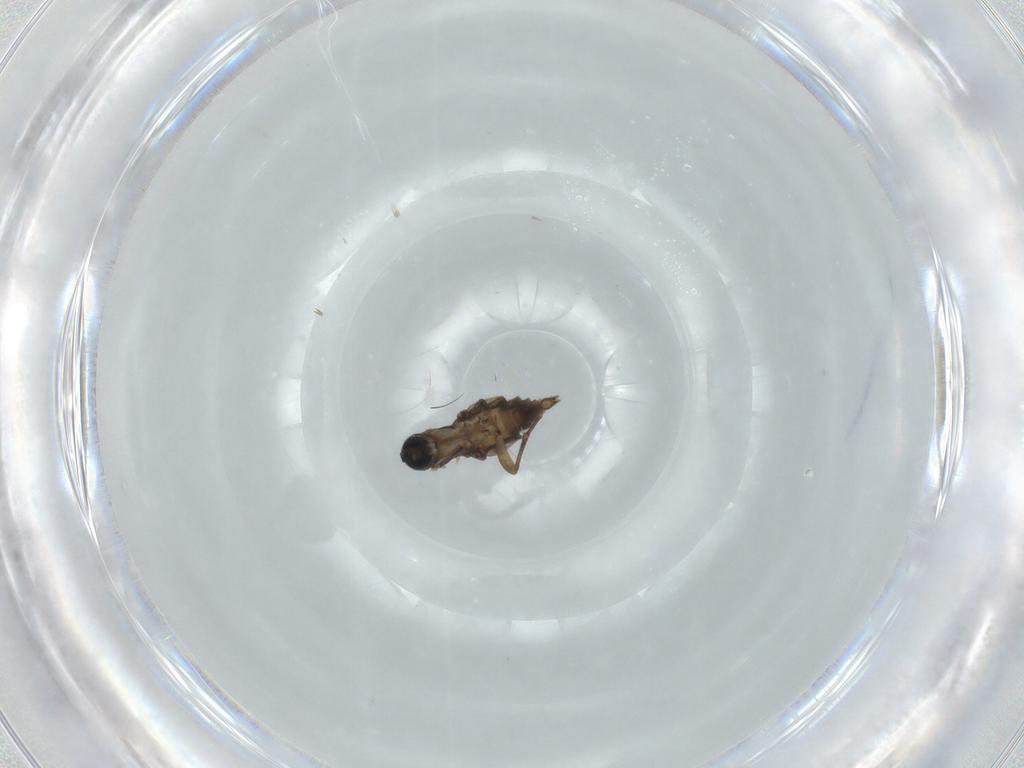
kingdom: Animalia
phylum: Arthropoda
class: Insecta
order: Diptera
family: Sciaridae
